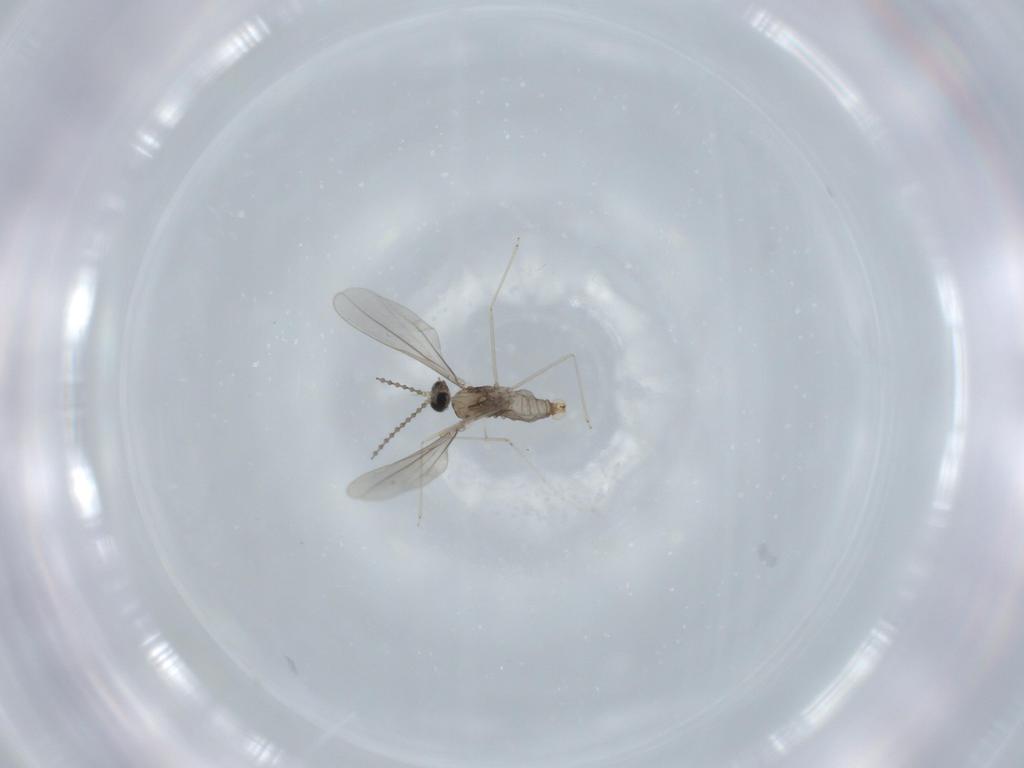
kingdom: Animalia
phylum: Arthropoda
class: Insecta
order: Diptera
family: Cecidomyiidae
